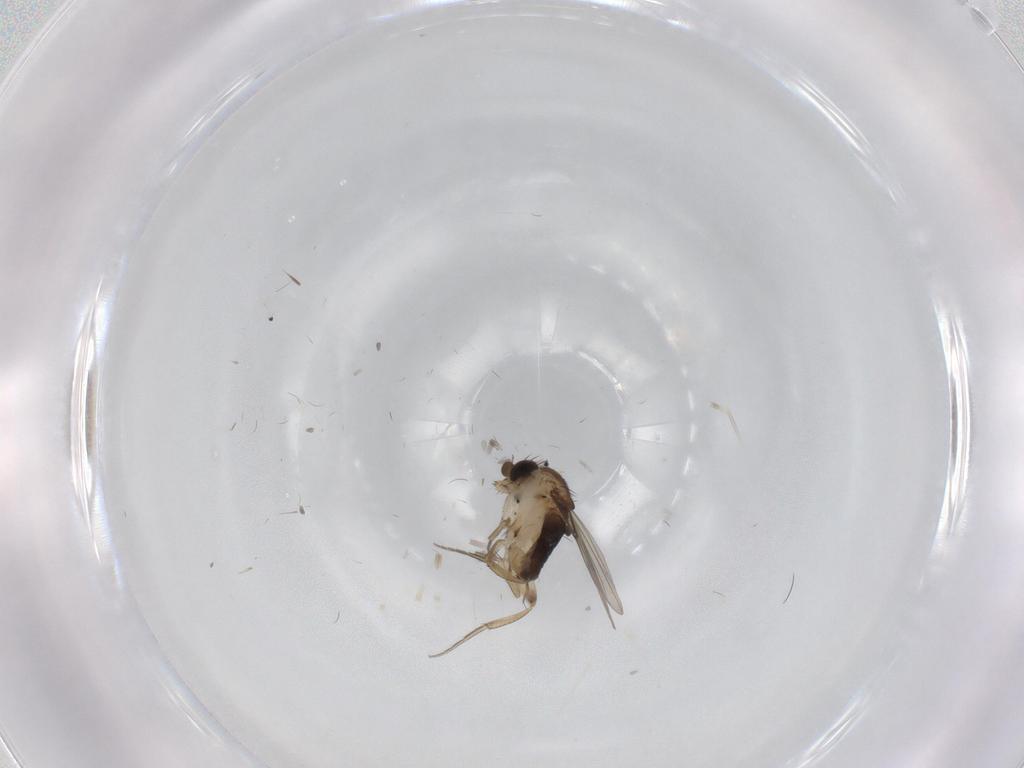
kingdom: Animalia
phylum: Arthropoda
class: Insecta
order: Diptera
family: Phoridae
